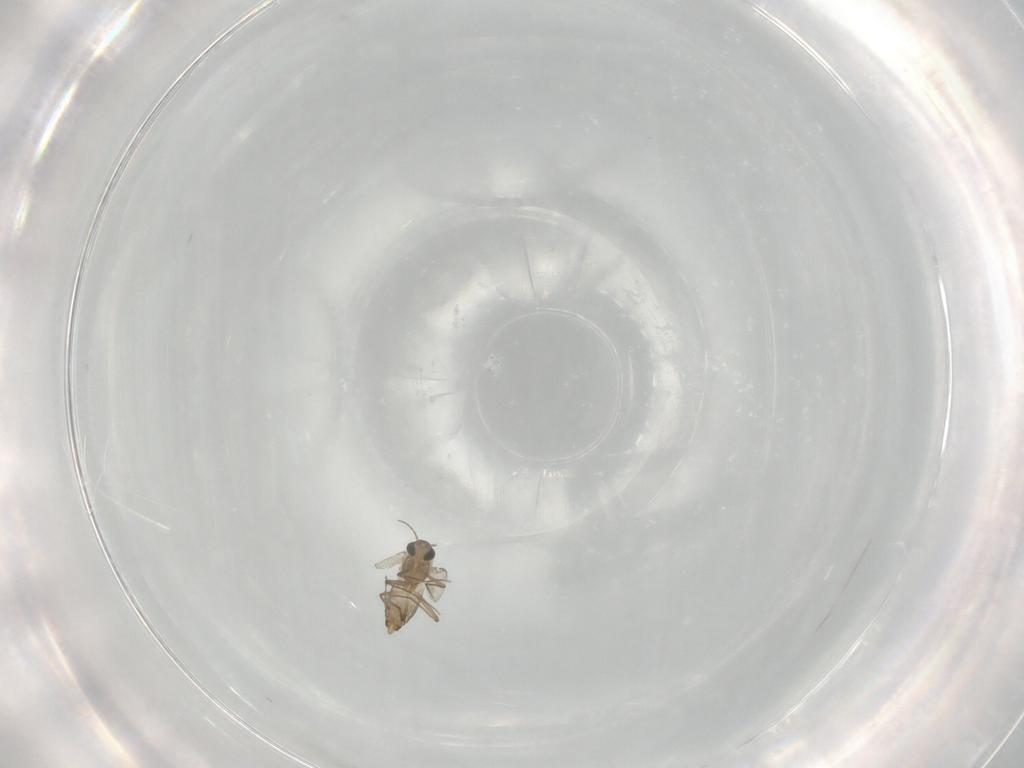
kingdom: Animalia
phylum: Arthropoda
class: Insecta
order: Diptera
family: Chironomidae
